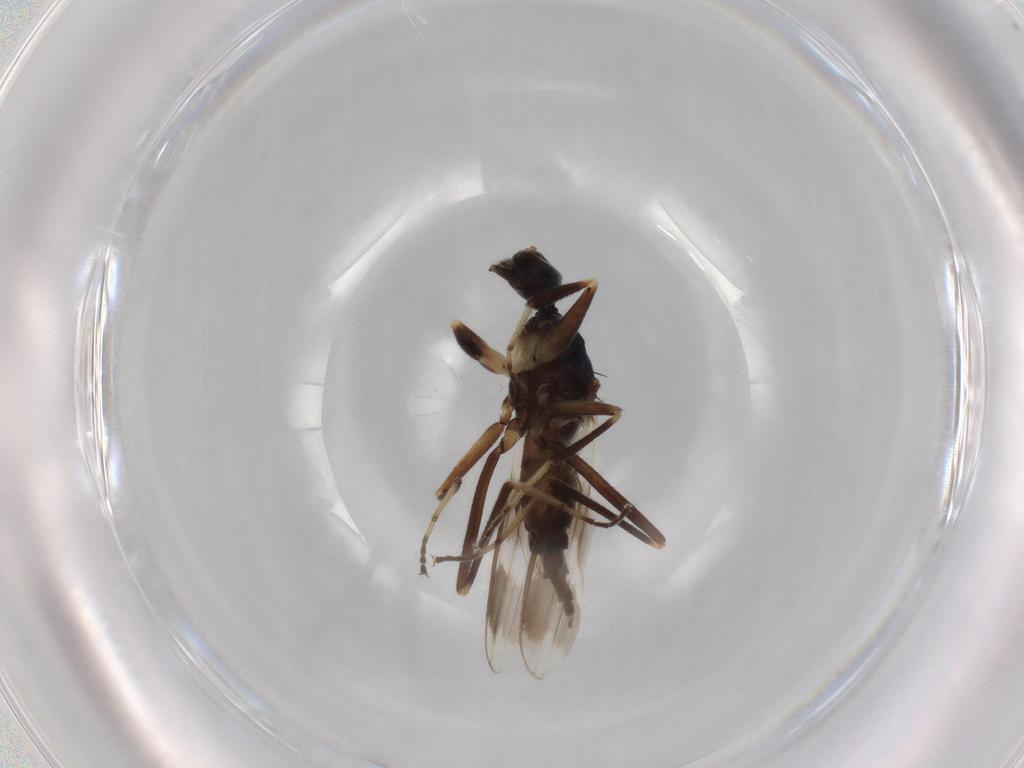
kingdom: Animalia
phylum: Arthropoda
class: Insecta
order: Diptera
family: Hybotidae
